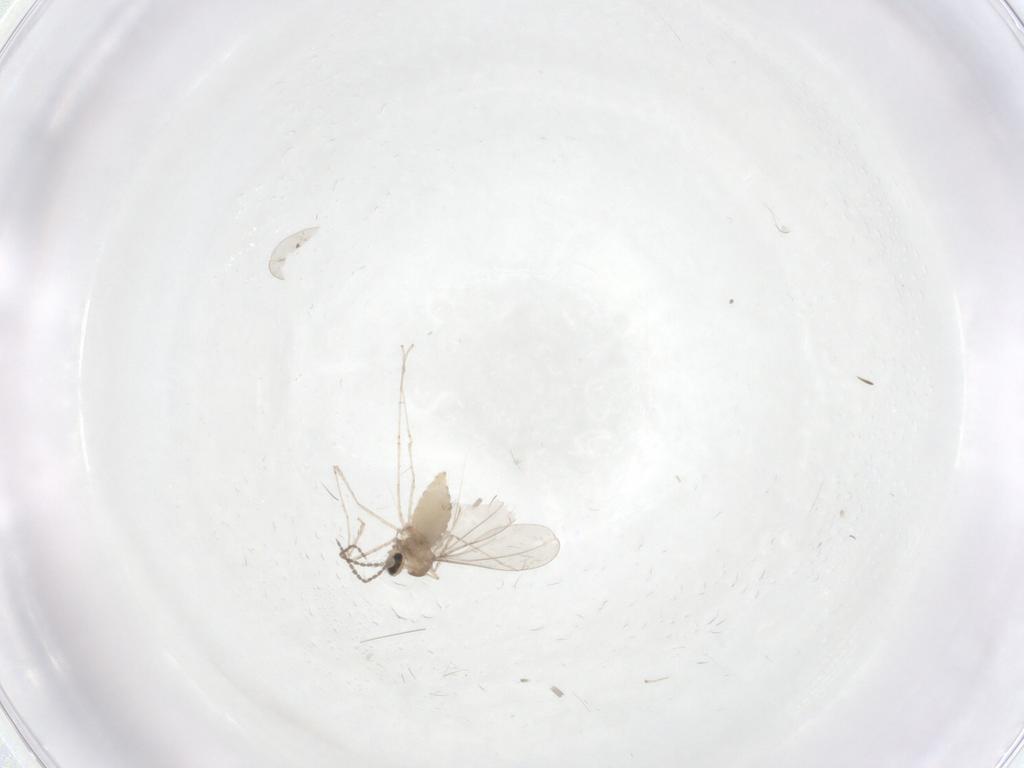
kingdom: Animalia
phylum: Arthropoda
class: Insecta
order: Diptera
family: Cecidomyiidae
